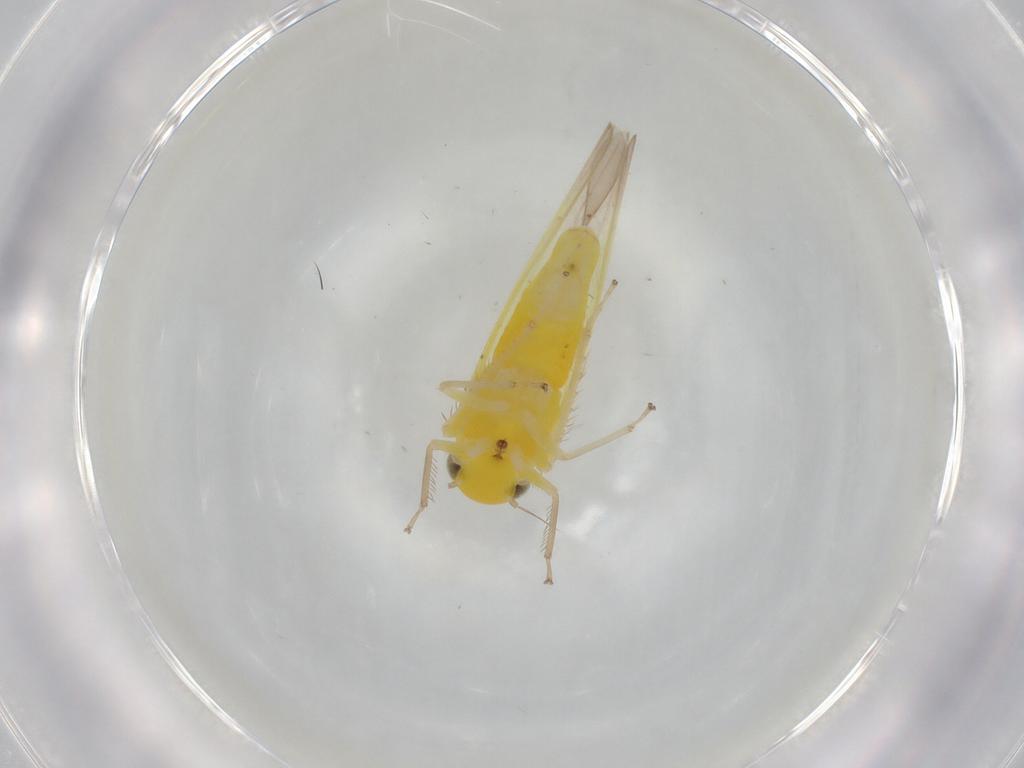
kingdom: Animalia
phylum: Arthropoda
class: Insecta
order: Hemiptera
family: Cicadellidae
